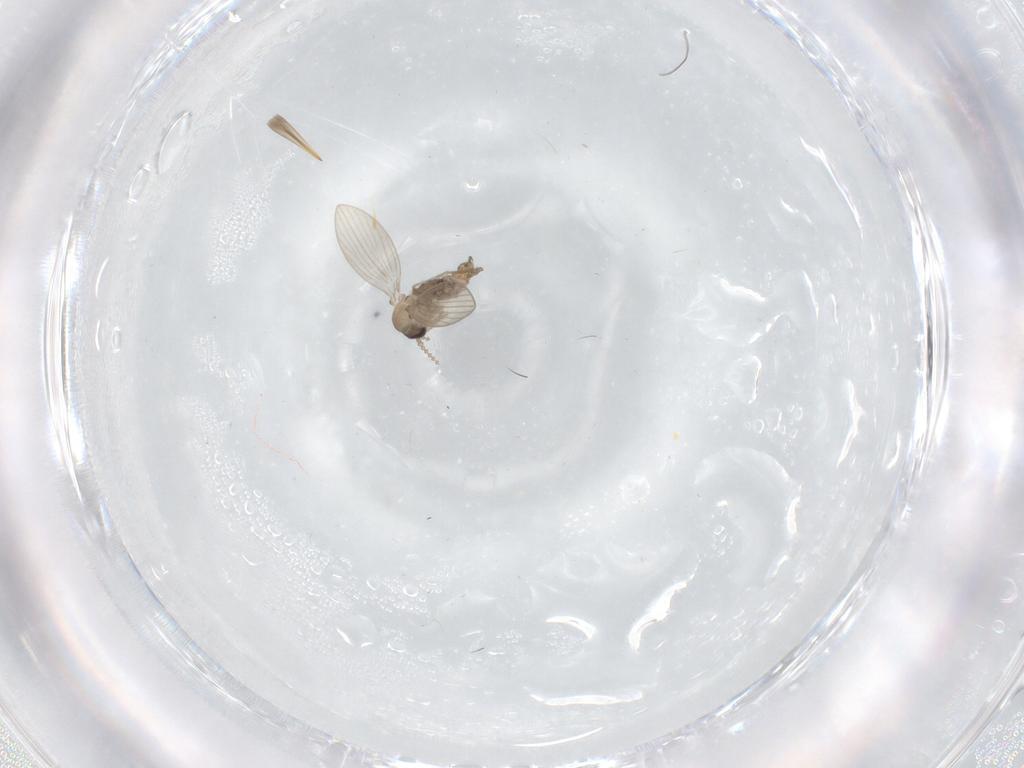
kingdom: Animalia
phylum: Arthropoda
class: Insecta
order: Diptera
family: Psychodidae
